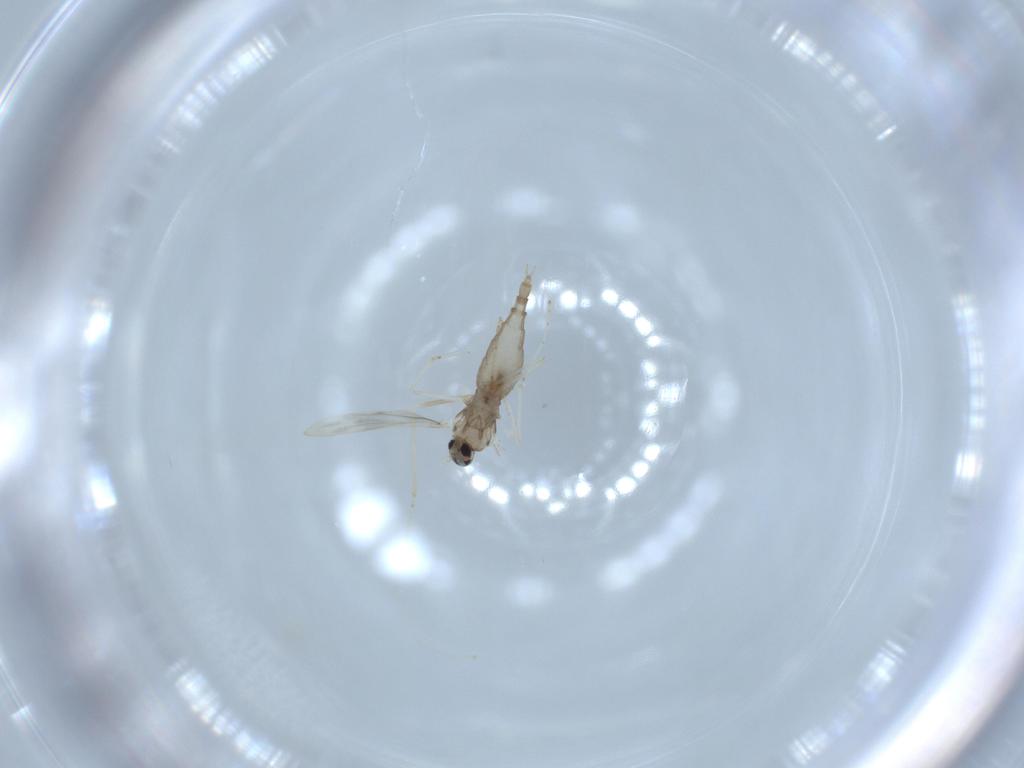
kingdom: Animalia
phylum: Arthropoda
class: Insecta
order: Diptera
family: Cecidomyiidae
